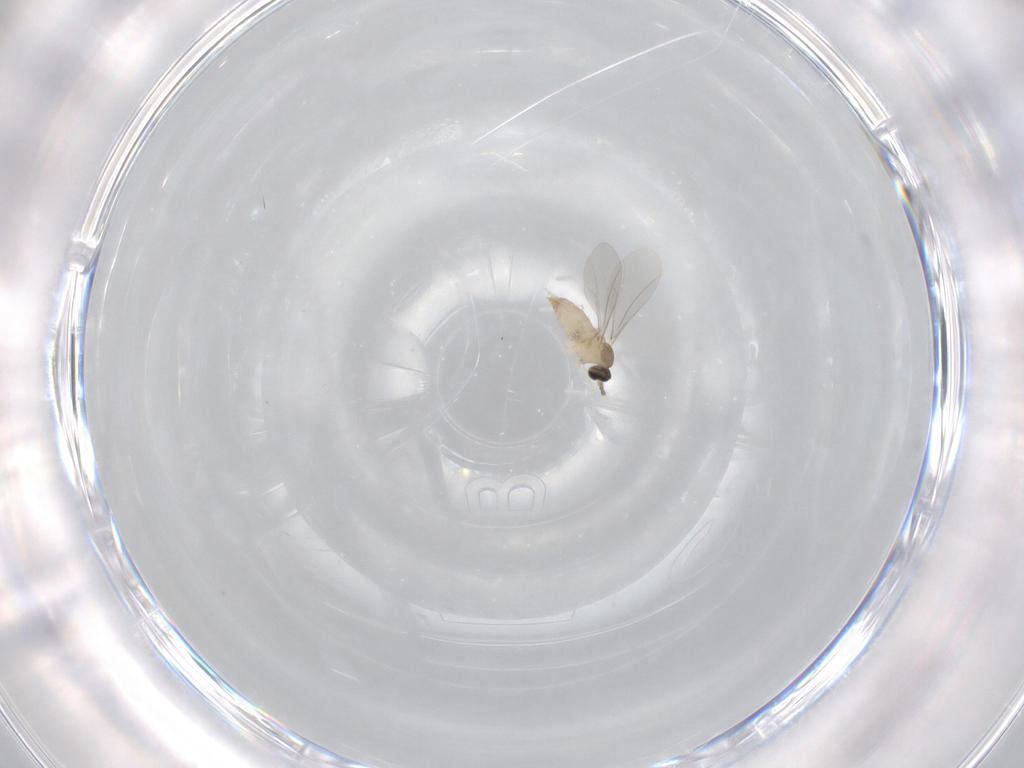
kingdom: Animalia
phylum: Arthropoda
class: Insecta
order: Diptera
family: Cecidomyiidae
